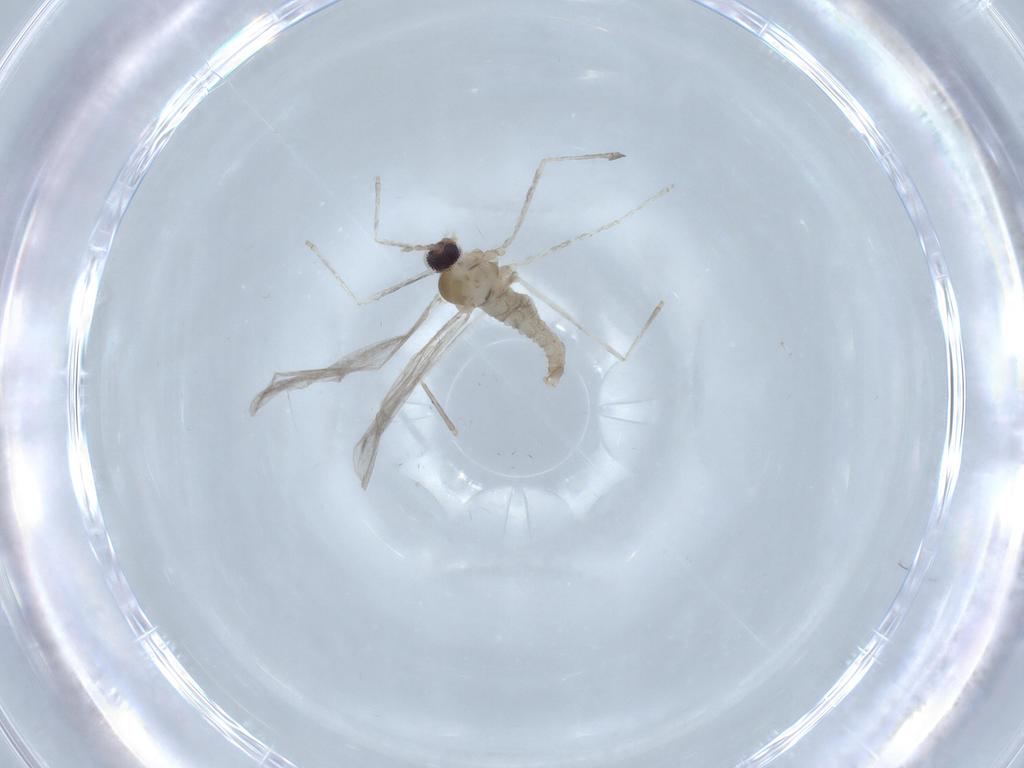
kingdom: Animalia
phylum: Arthropoda
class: Insecta
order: Diptera
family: Cecidomyiidae
